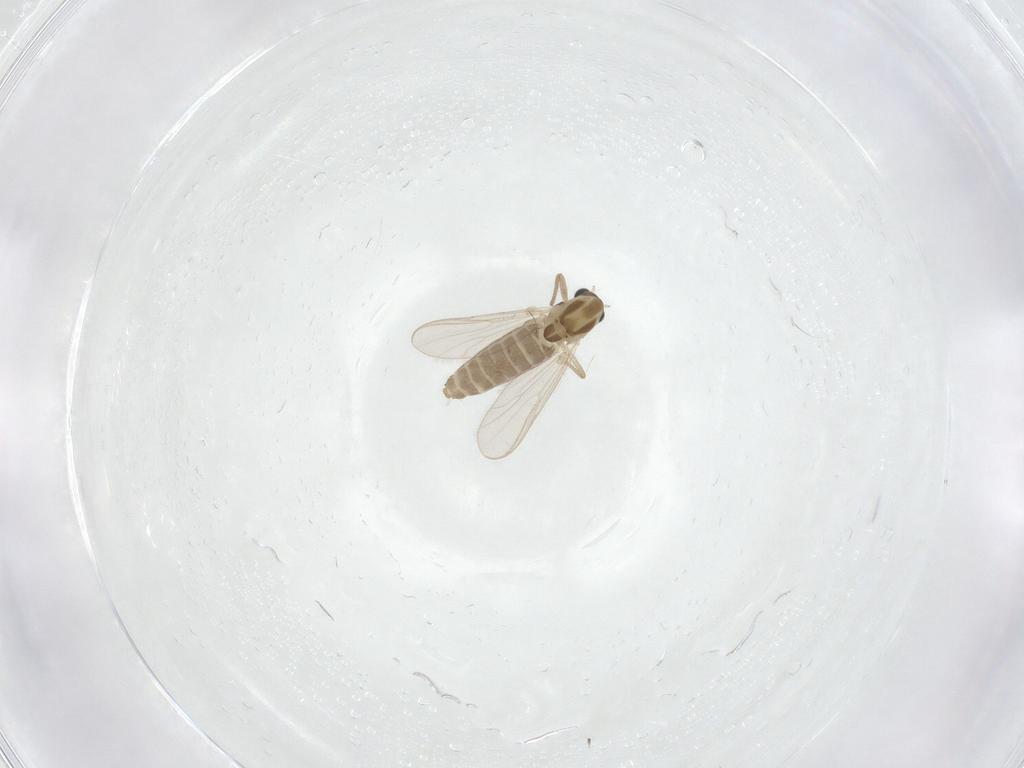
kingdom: Animalia
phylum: Arthropoda
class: Insecta
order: Diptera
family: Chironomidae
